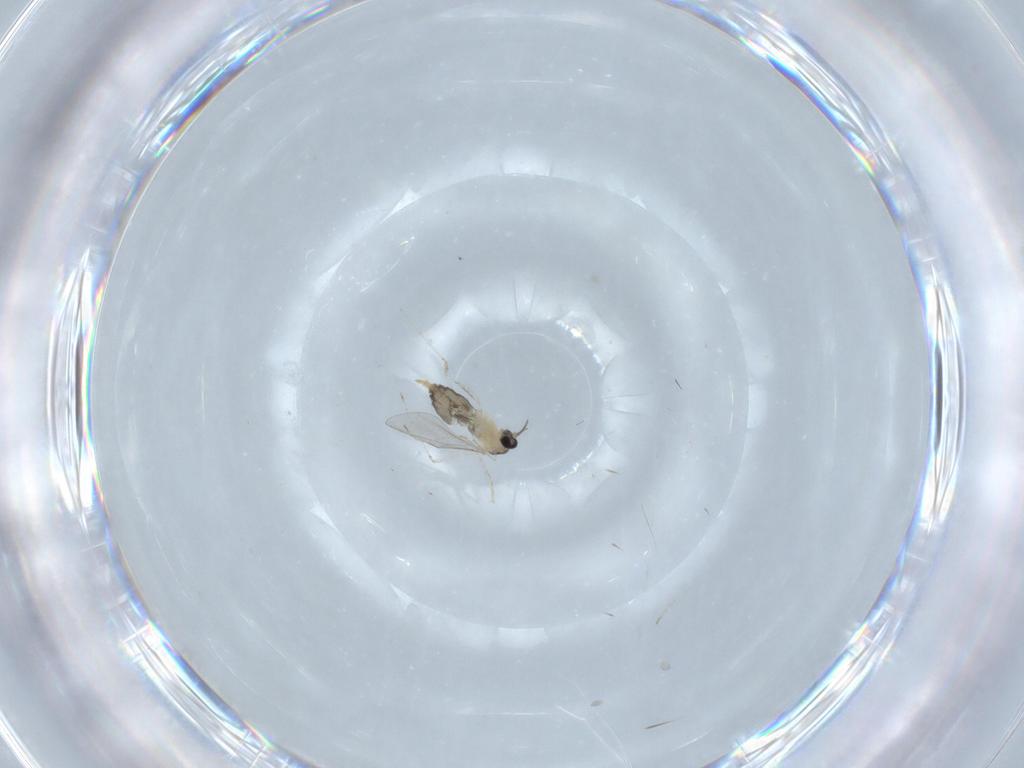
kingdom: Animalia
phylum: Arthropoda
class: Insecta
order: Diptera
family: Cecidomyiidae
